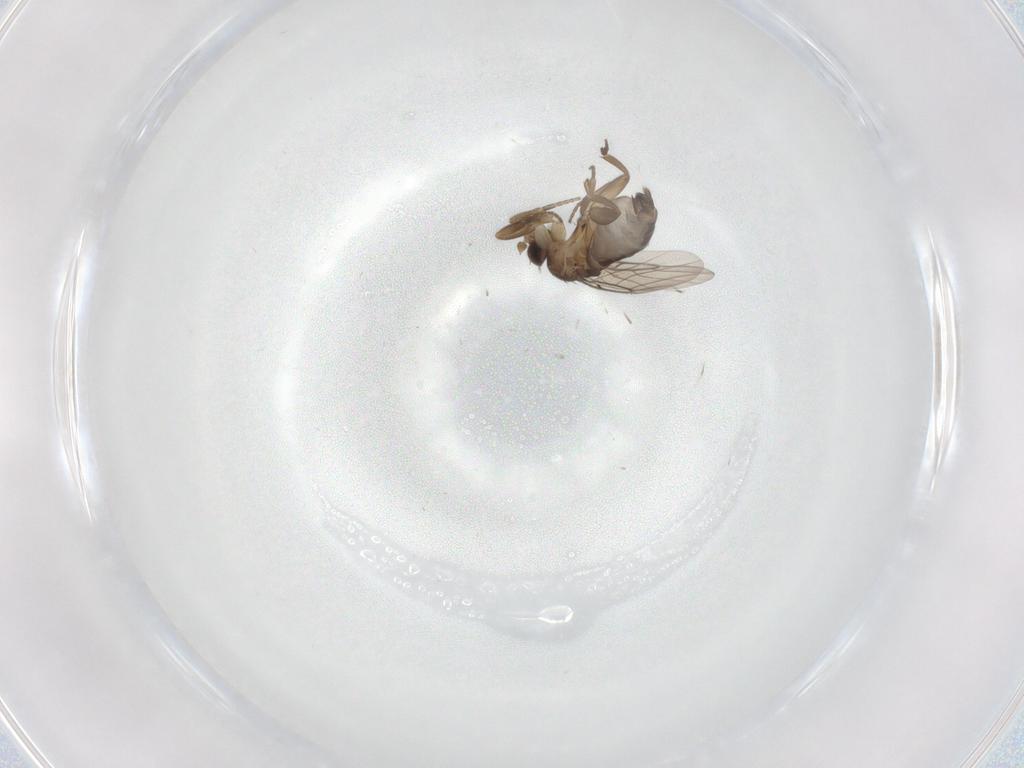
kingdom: Animalia
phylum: Arthropoda
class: Insecta
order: Diptera
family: Phoridae
